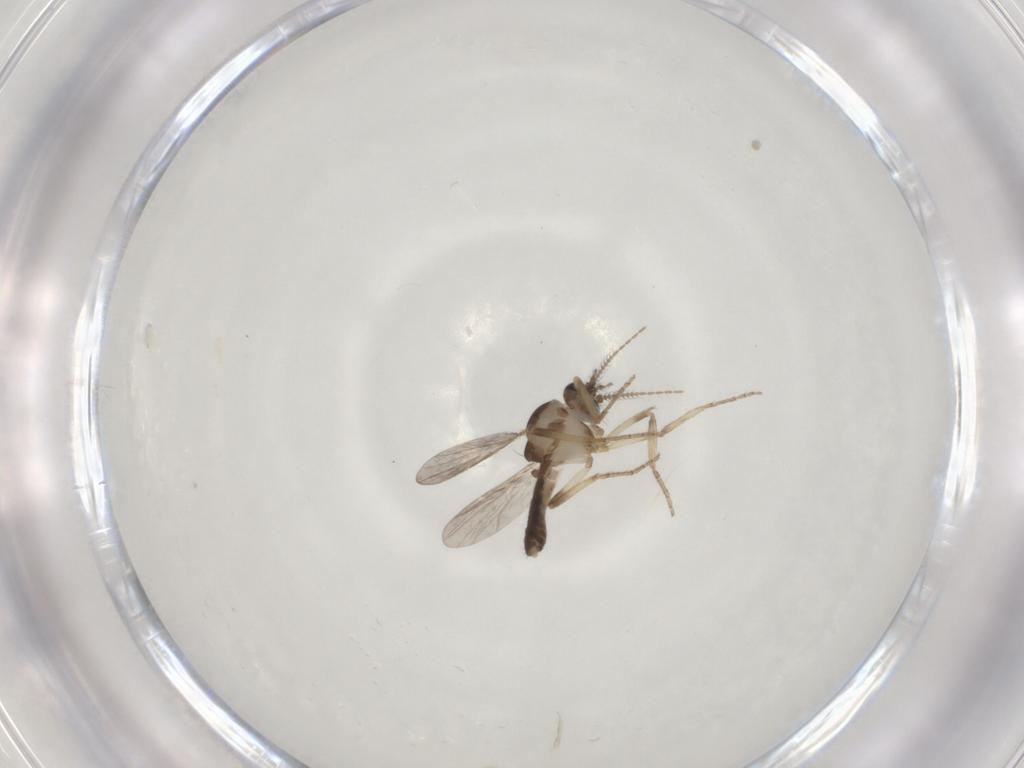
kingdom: Animalia
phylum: Arthropoda
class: Insecta
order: Diptera
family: Ceratopogonidae
